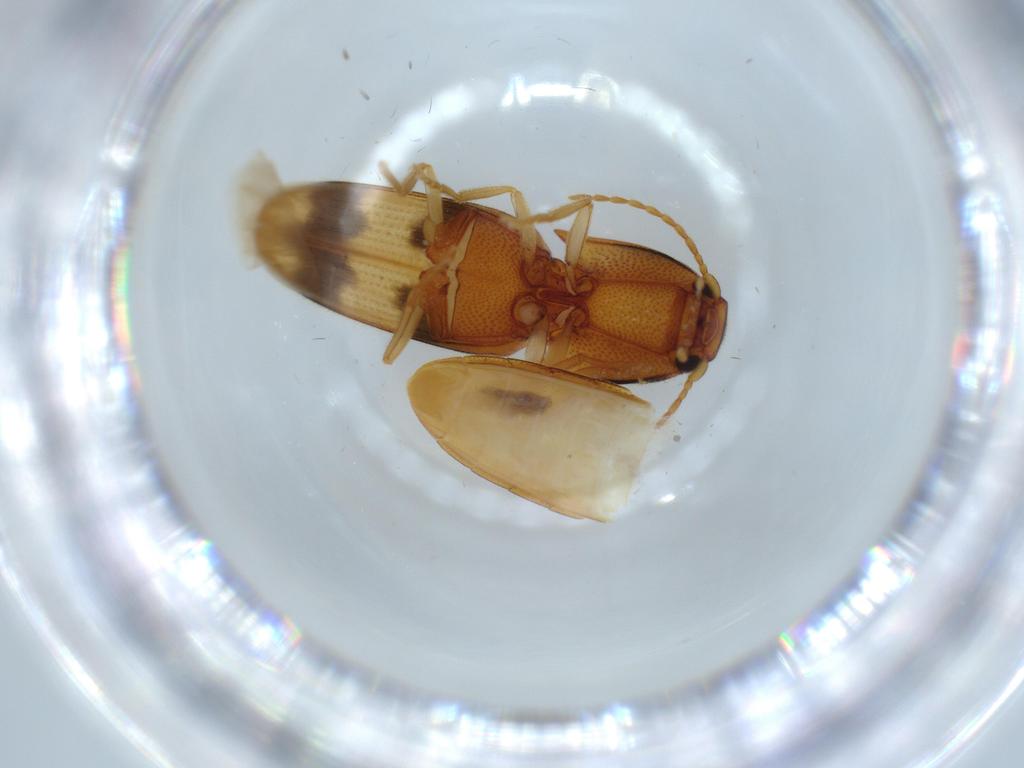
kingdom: Animalia
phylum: Arthropoda
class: Insecta
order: Coleoptera
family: Elateridae
